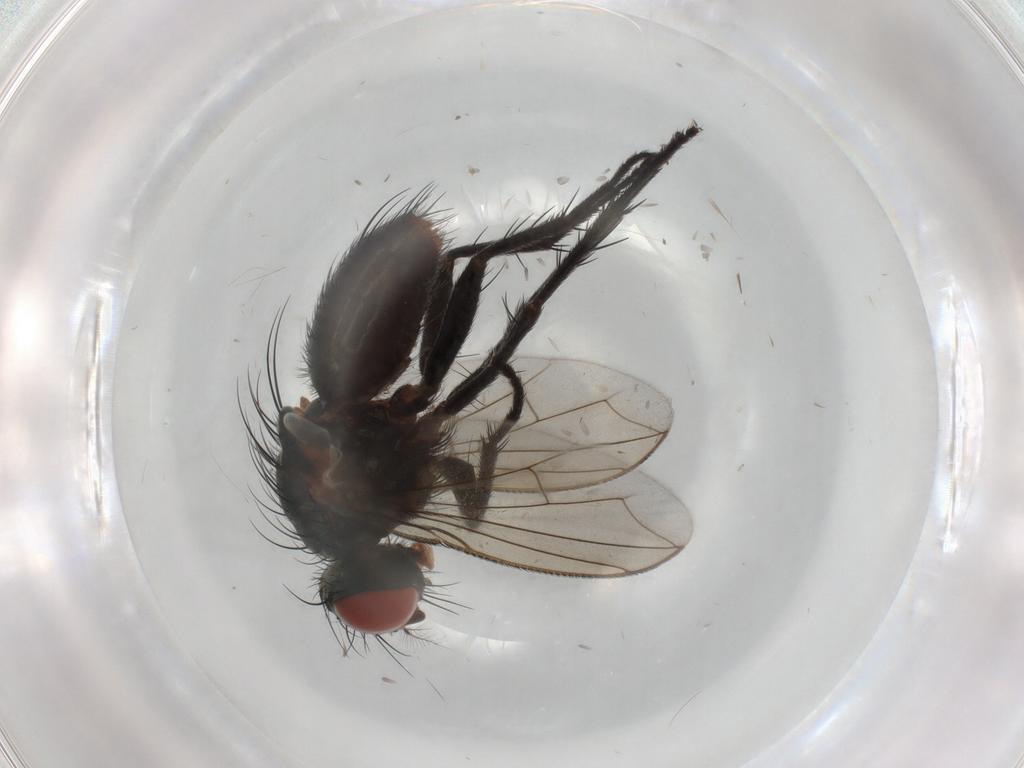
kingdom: Animalia
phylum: Arthropoda
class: Insecta
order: Diptera
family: Sarcophagidae
